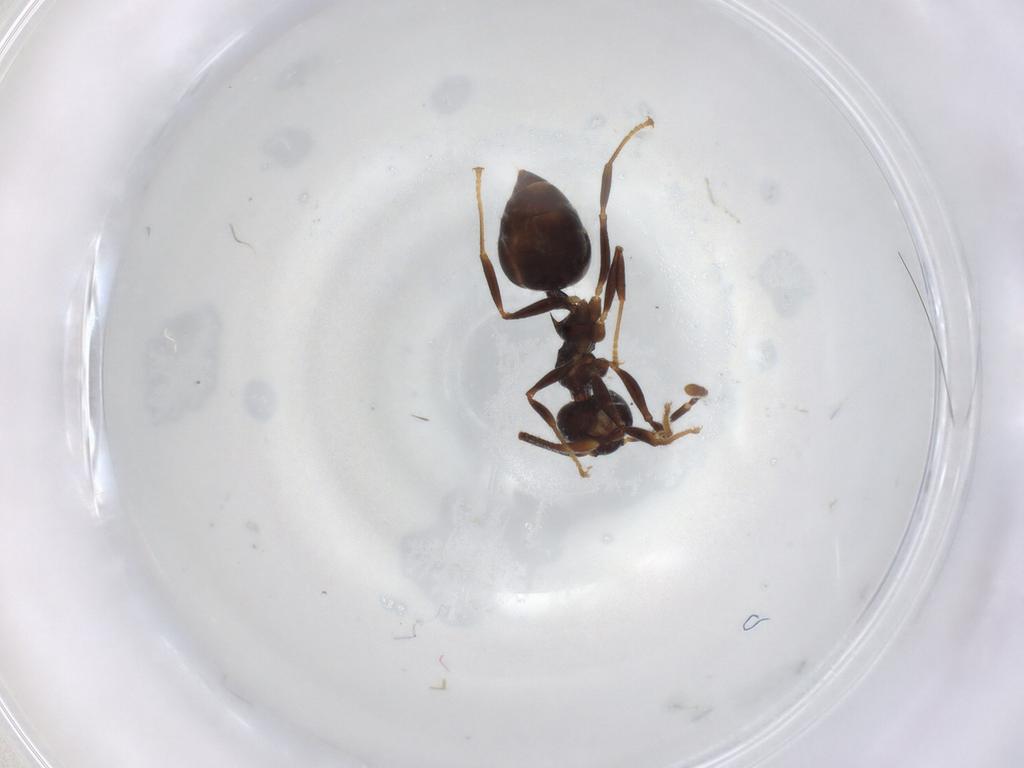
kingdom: Animalia
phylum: Arthropoda
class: Insecta
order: Hymenoptera
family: Formicidae
